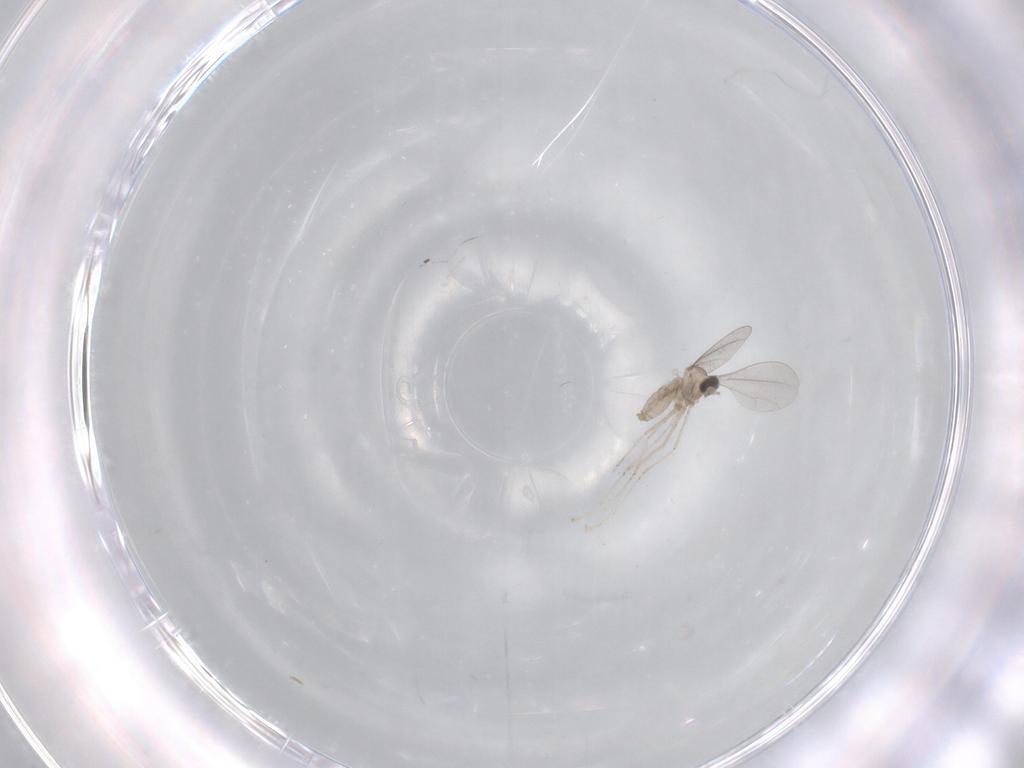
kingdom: Animalia
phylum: Arthropoda
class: Insecta
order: Diptera
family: Cecidomyiidae
